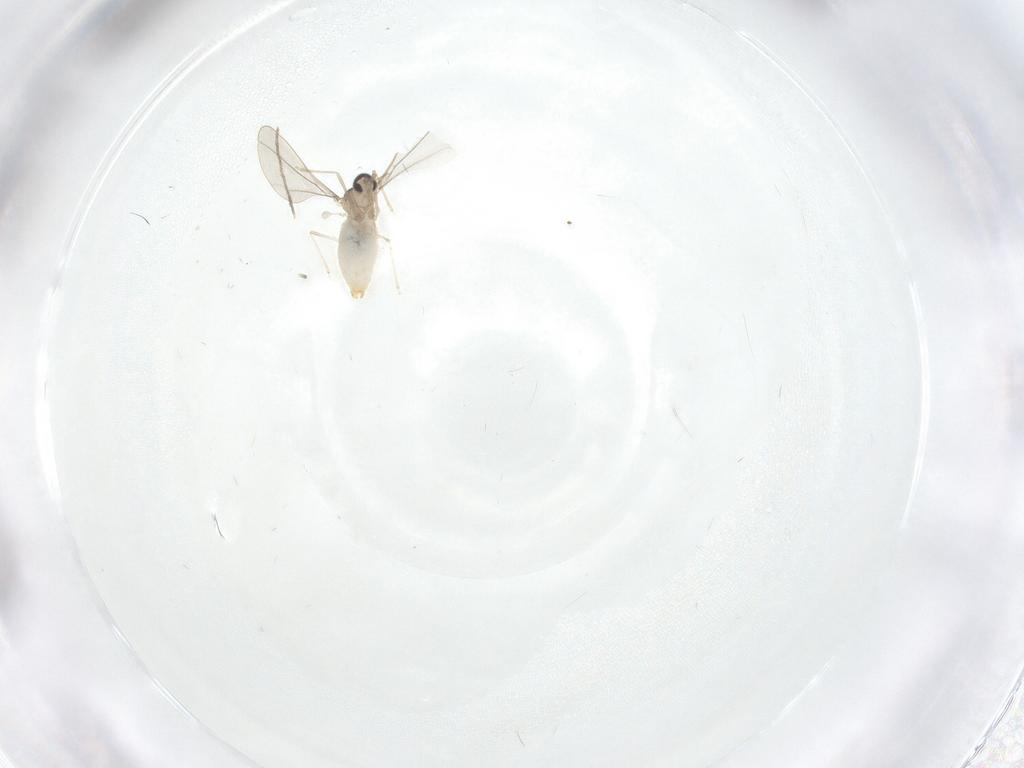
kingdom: Animalia
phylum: Arthropoda
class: Insecta
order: Diptera
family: Chironomidae
